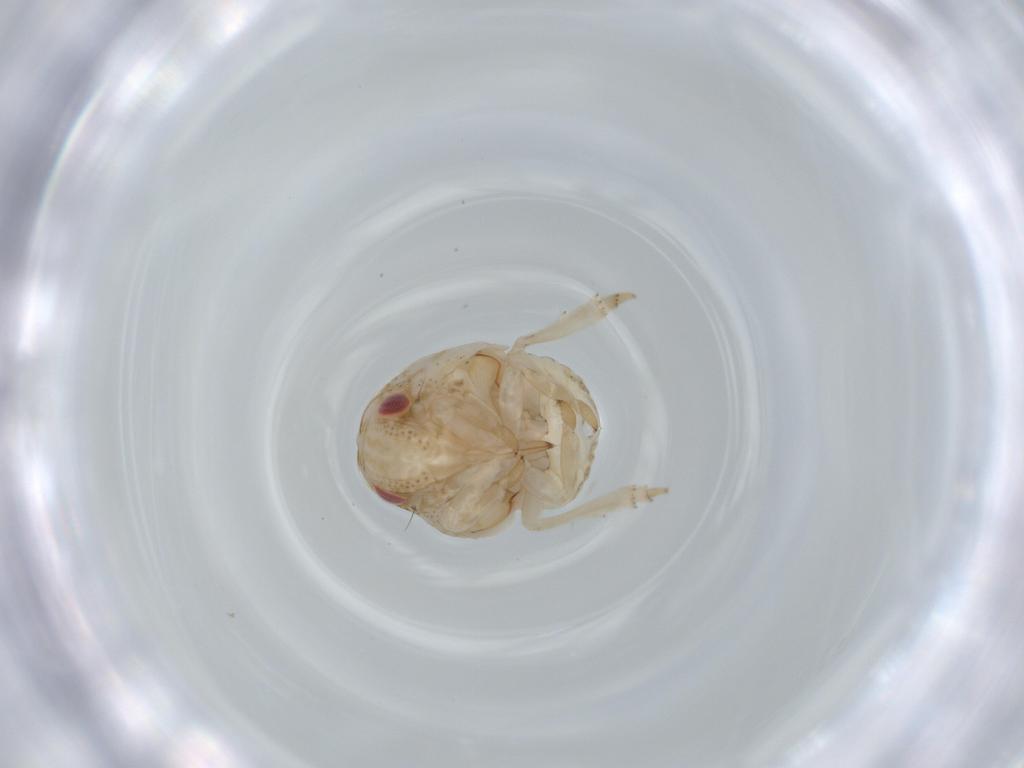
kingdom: Animalia
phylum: Arthropoda
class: Insecta
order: Hemiptera
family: Acanaloniidae
